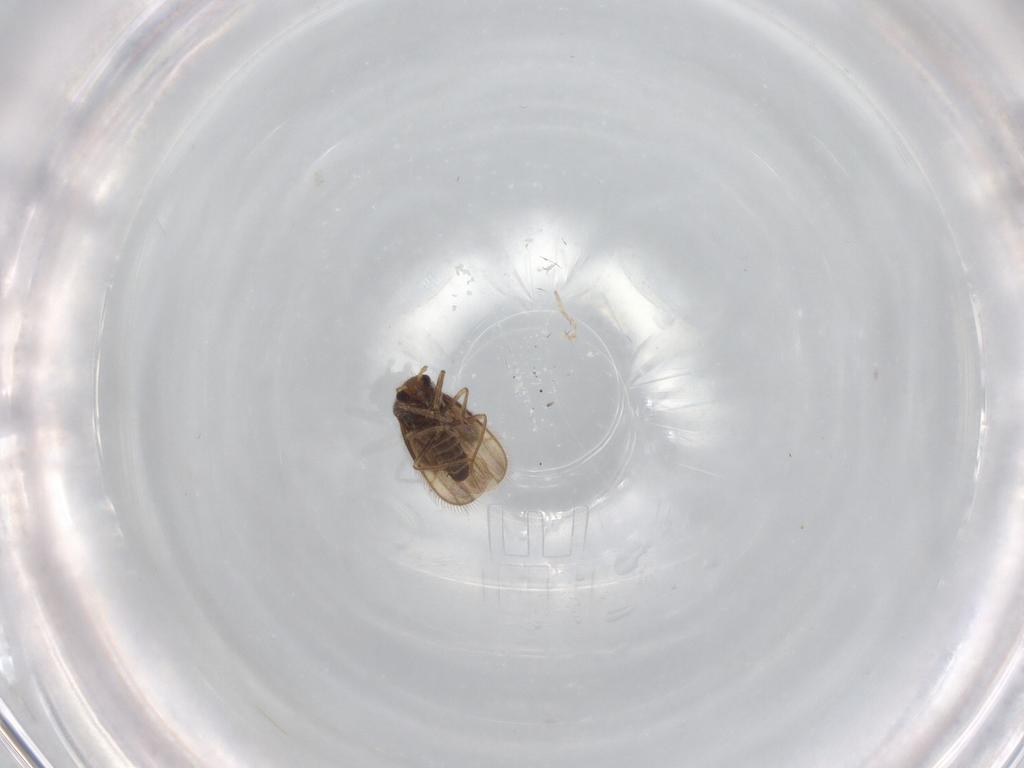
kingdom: Animalia
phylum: Arthropoda
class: Insecta
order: Hemiptera
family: Schizopteridae
